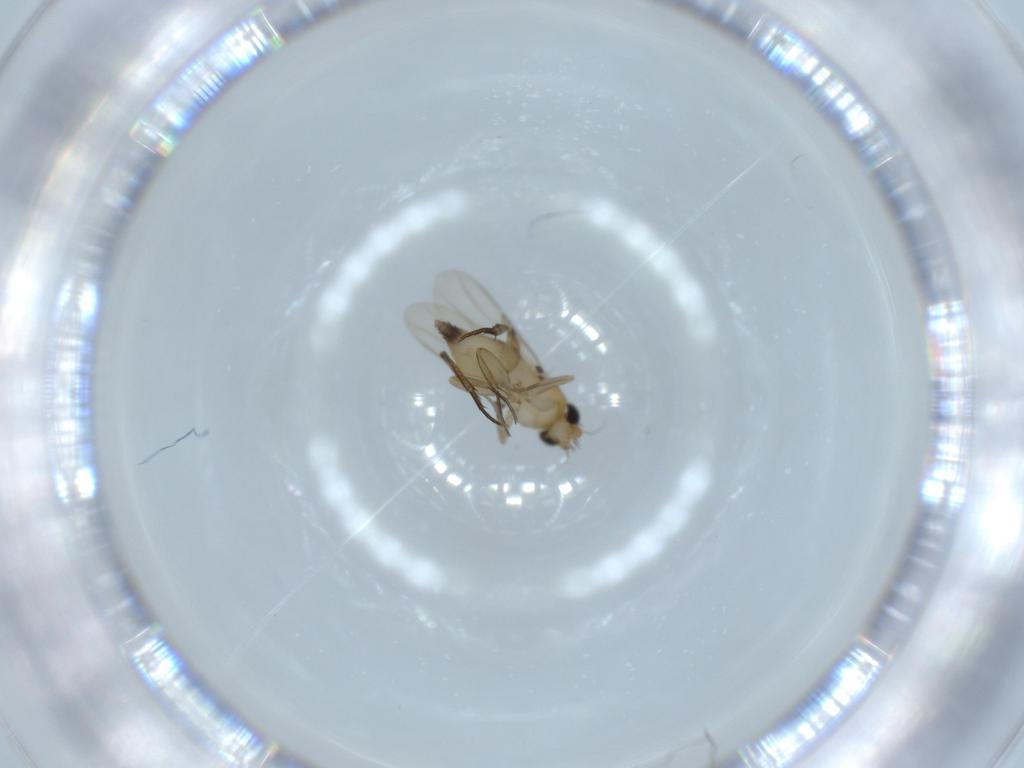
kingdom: Animalia
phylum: Arthropoda
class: Insecta
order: Diptera
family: Phoridae
